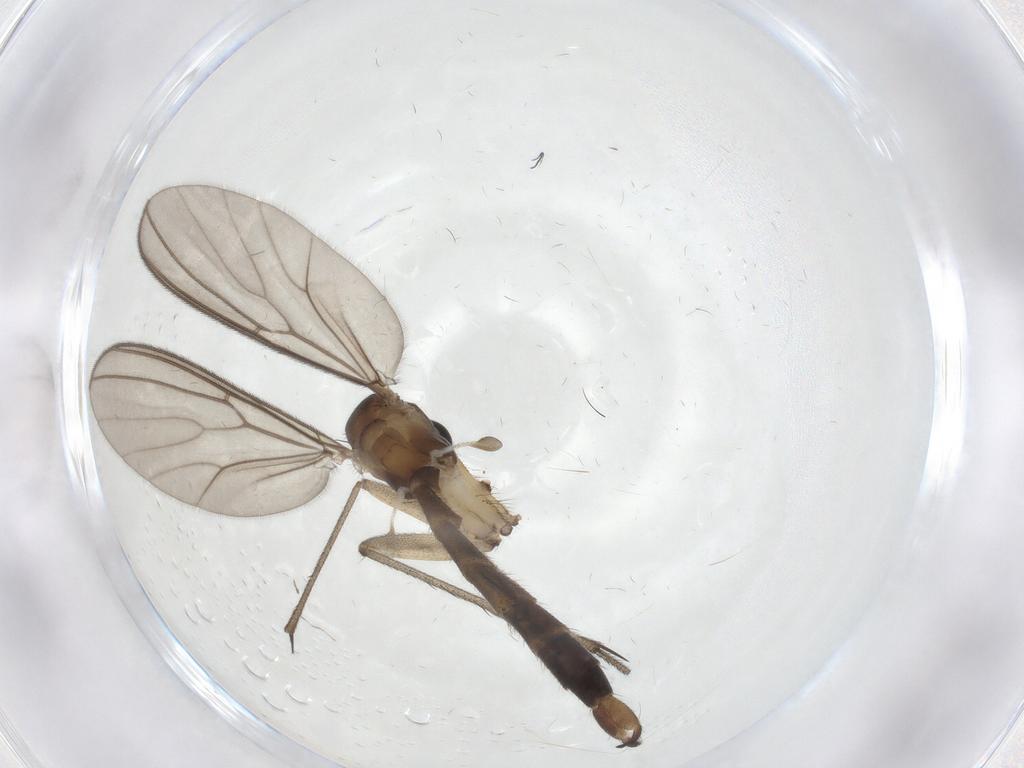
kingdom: Animalia
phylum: Arthropoda
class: Insecta
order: Diptera
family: Mycetophilidae
